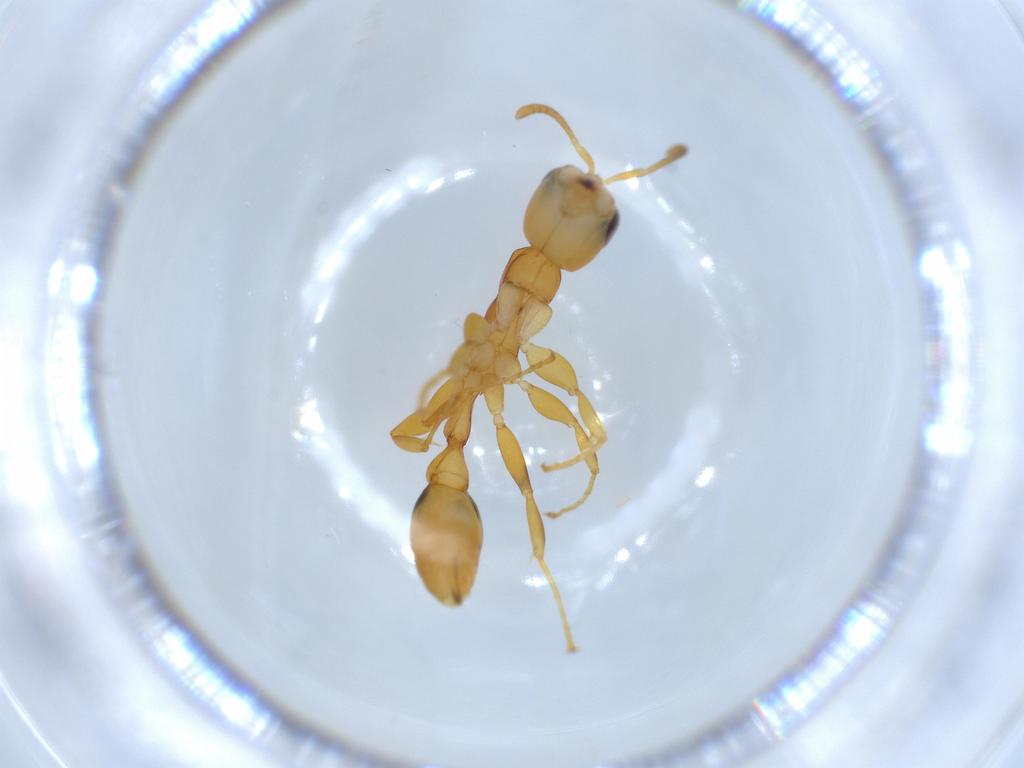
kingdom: Animalia
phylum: Arthropoda
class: Insecta
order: Hymenoptera
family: Formicidae
